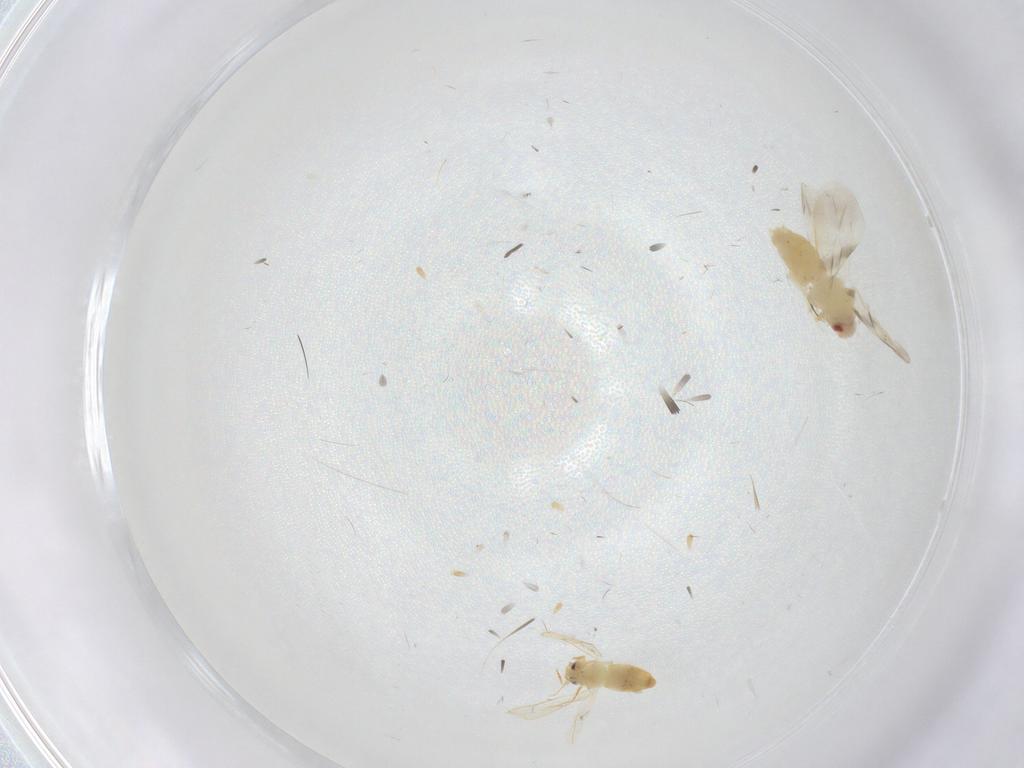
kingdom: Animalia
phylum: Arthropoda
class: Insecta
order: Hemiptera
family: Aleyrodidae
